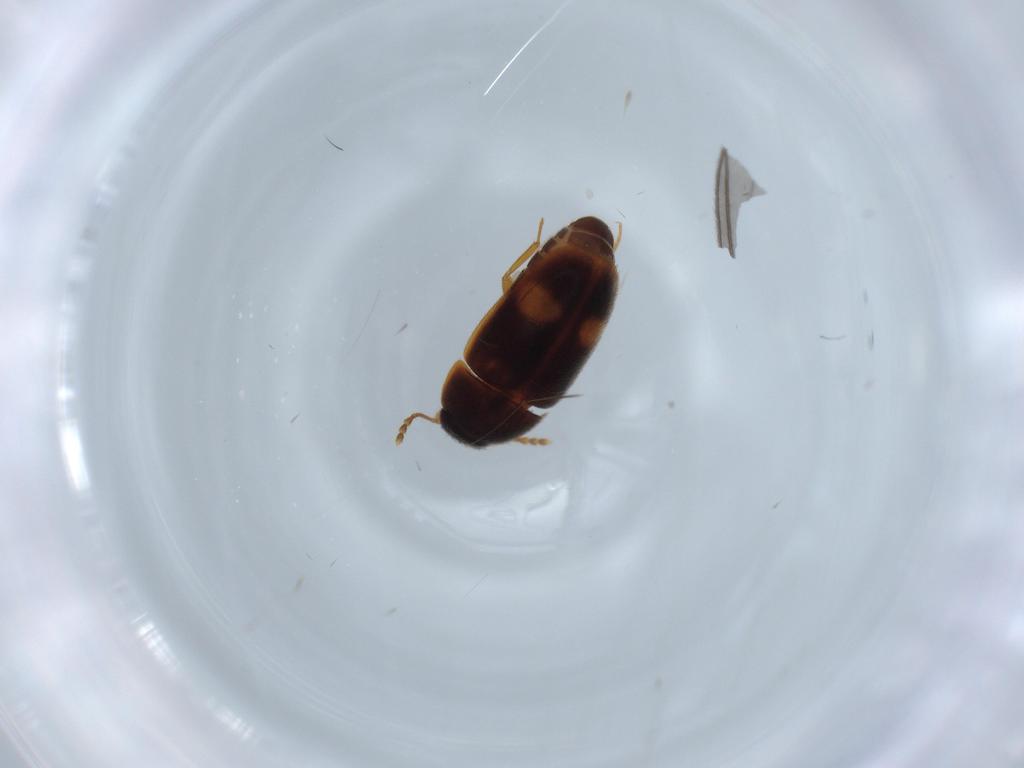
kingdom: Animalia
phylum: Arthropoda
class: Insecta
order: Coleoptera
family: Mycetophagidae
